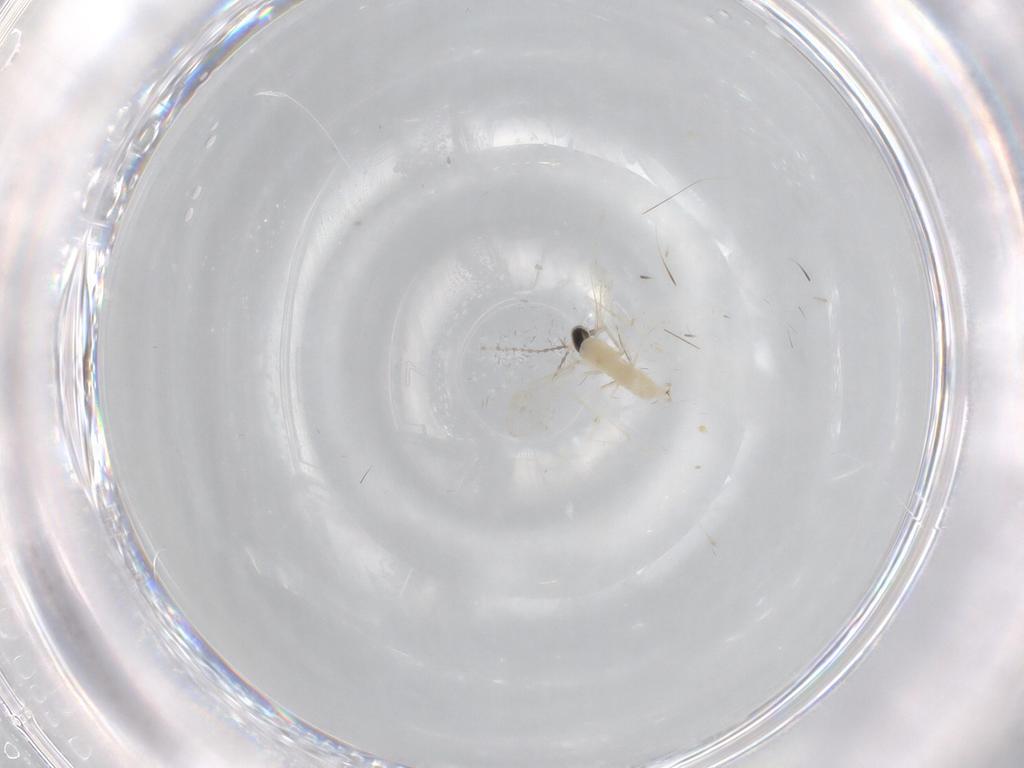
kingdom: Animalia
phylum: Arthropoda
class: Insecta
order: Diptera
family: Cecidomyiidae
